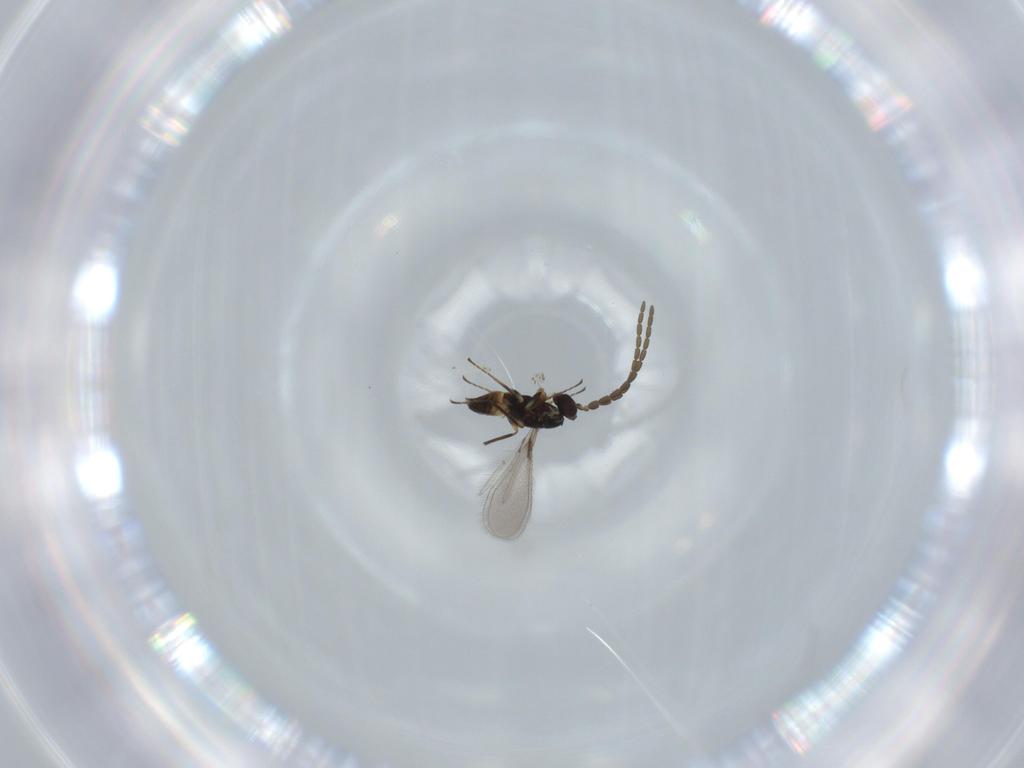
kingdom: Animalia
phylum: Arthropoda
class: Insecta
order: Hymenoptera
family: Mymaridae
